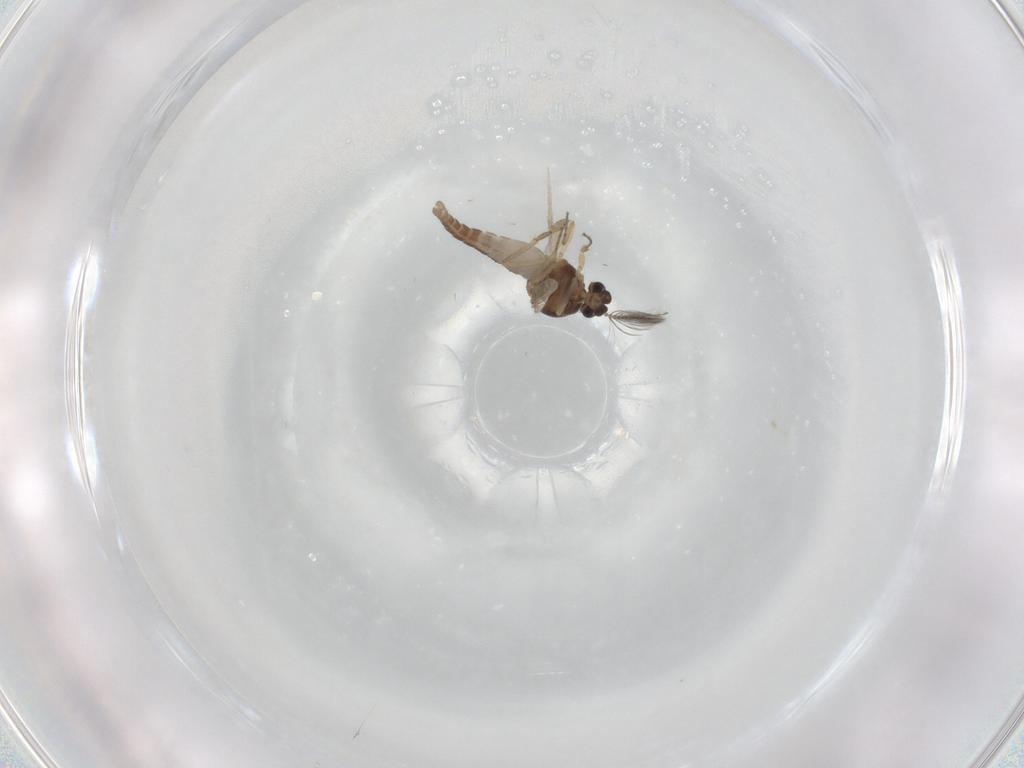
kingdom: Animalia
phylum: Arthropoda
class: Insecta
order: Diptera
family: Ceratopogonidae
